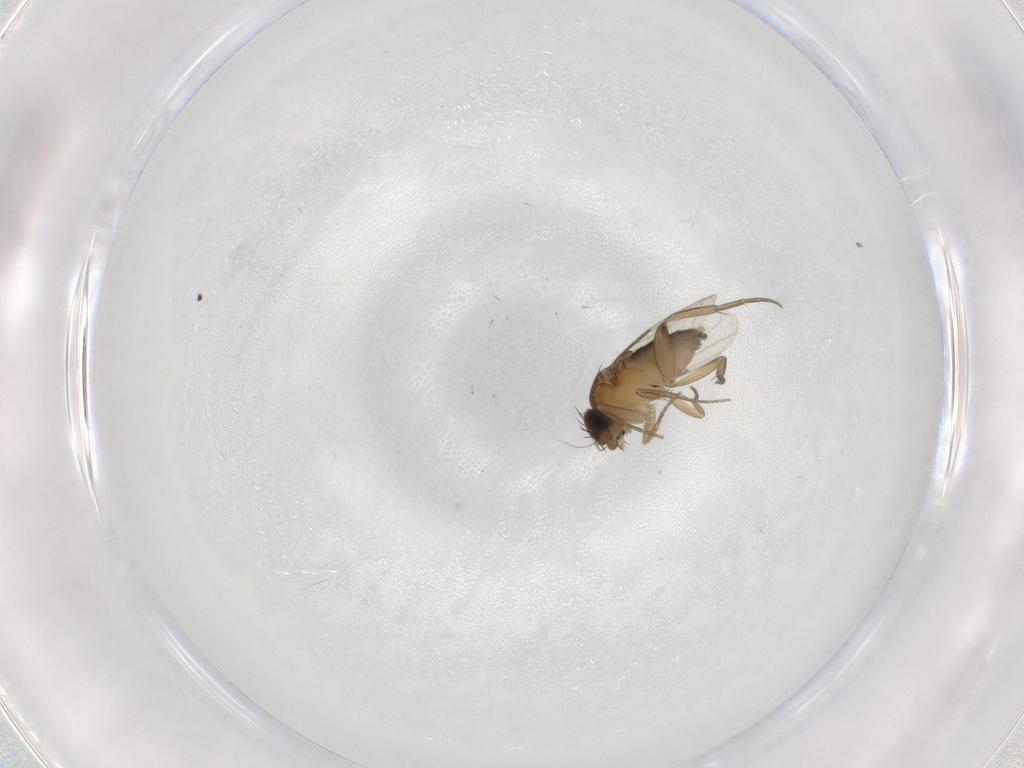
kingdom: Animalia
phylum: Arthropoda
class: Insecta
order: Diptera
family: Phoridae
